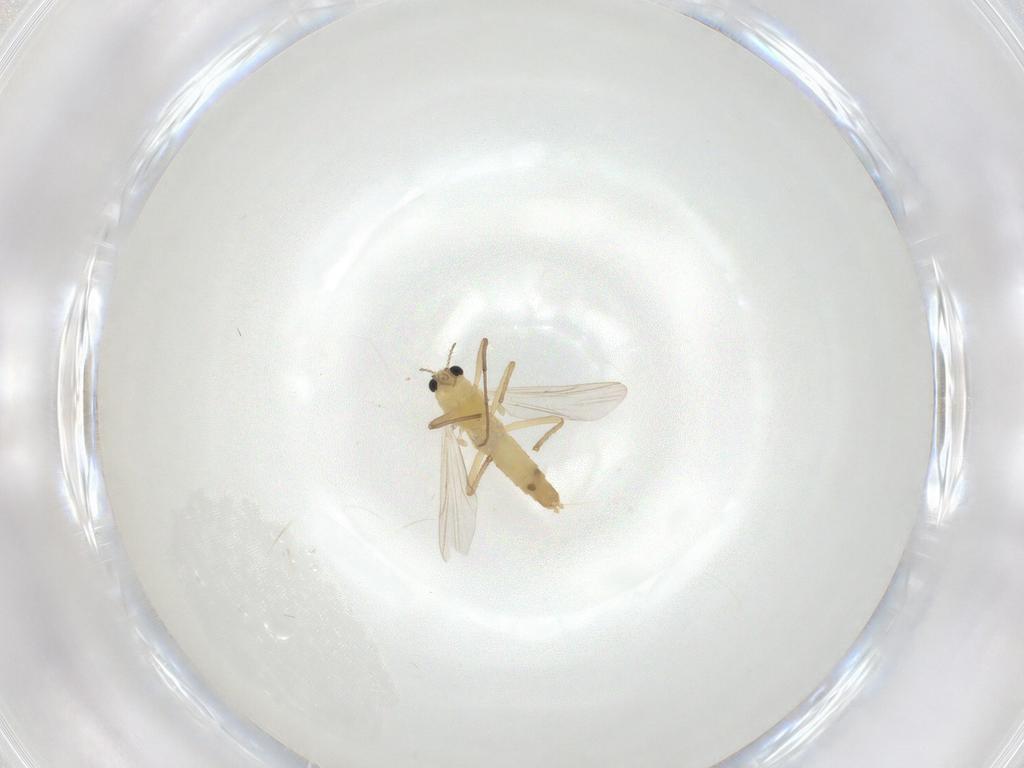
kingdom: Animalia
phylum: Arthropoda
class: Insecta
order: Diptera
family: Chironomidae
